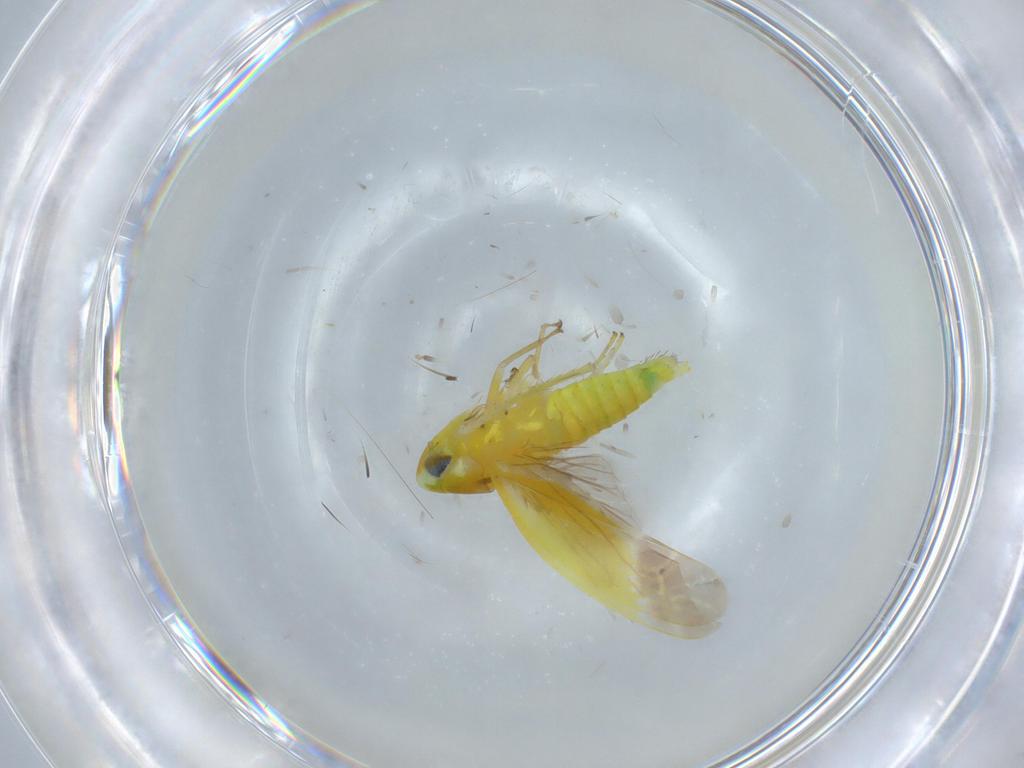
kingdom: Animalia
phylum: Arthropoda
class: Insecta
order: Hemiptera
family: Cicadellidae
